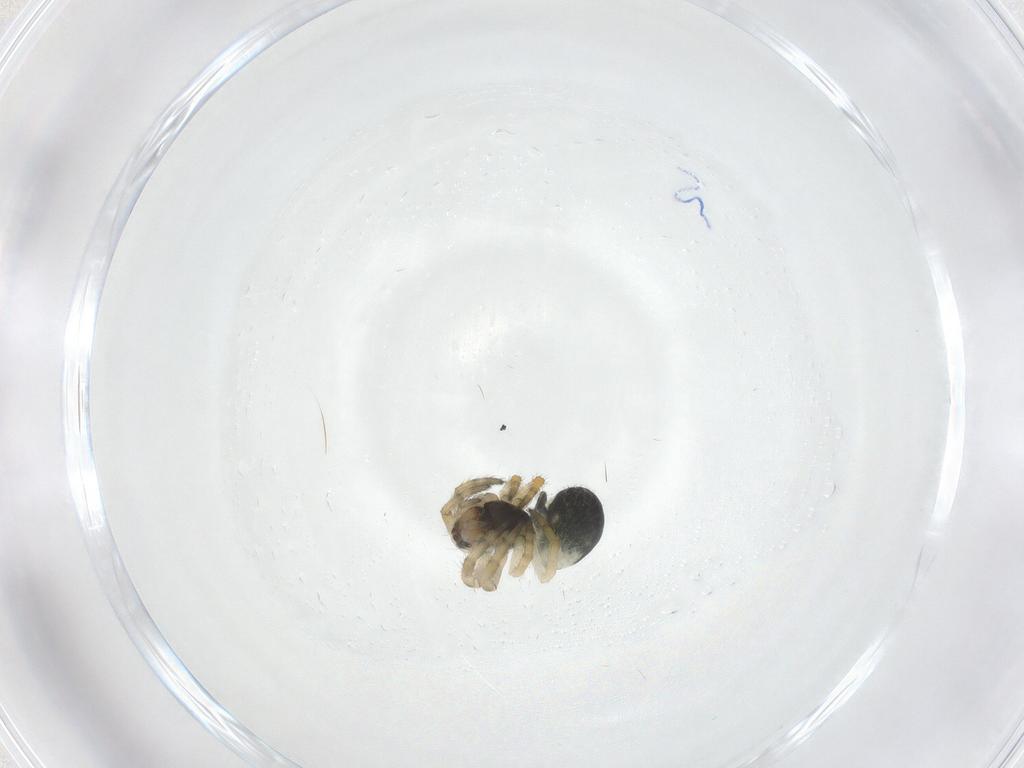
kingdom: Animalia
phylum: Arthropoda
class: Arachnida
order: Araneae
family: Araneidae
